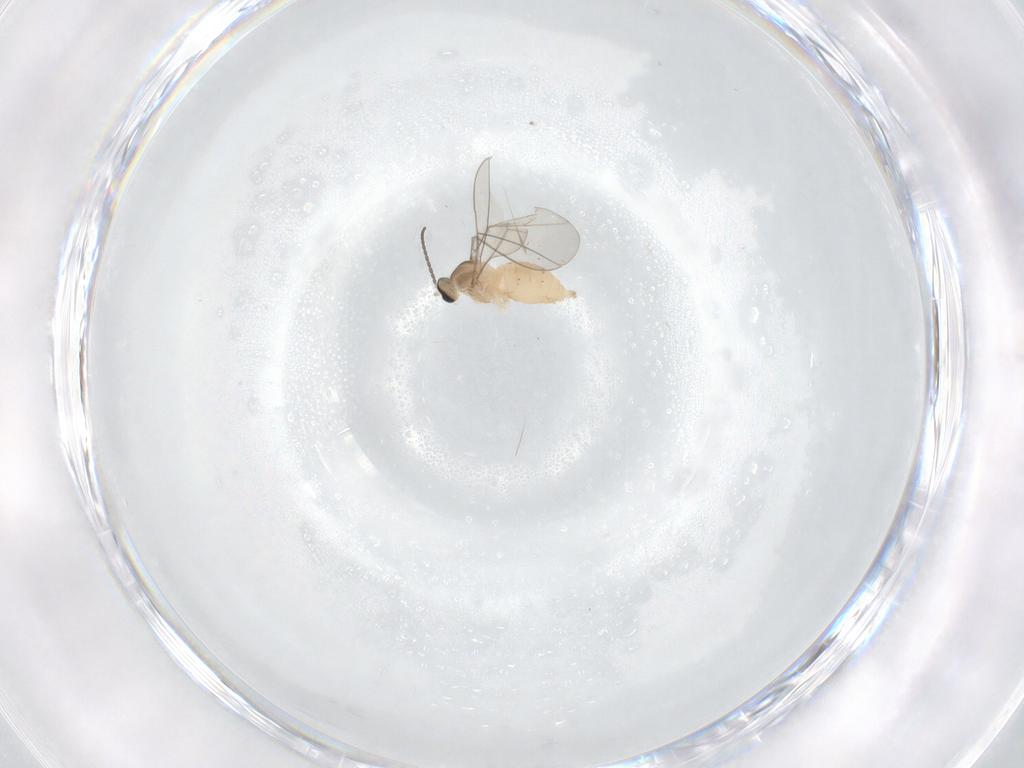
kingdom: Animalia
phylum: Arthropoda
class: Insecta
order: Diptera
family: Cecidomyiidae
